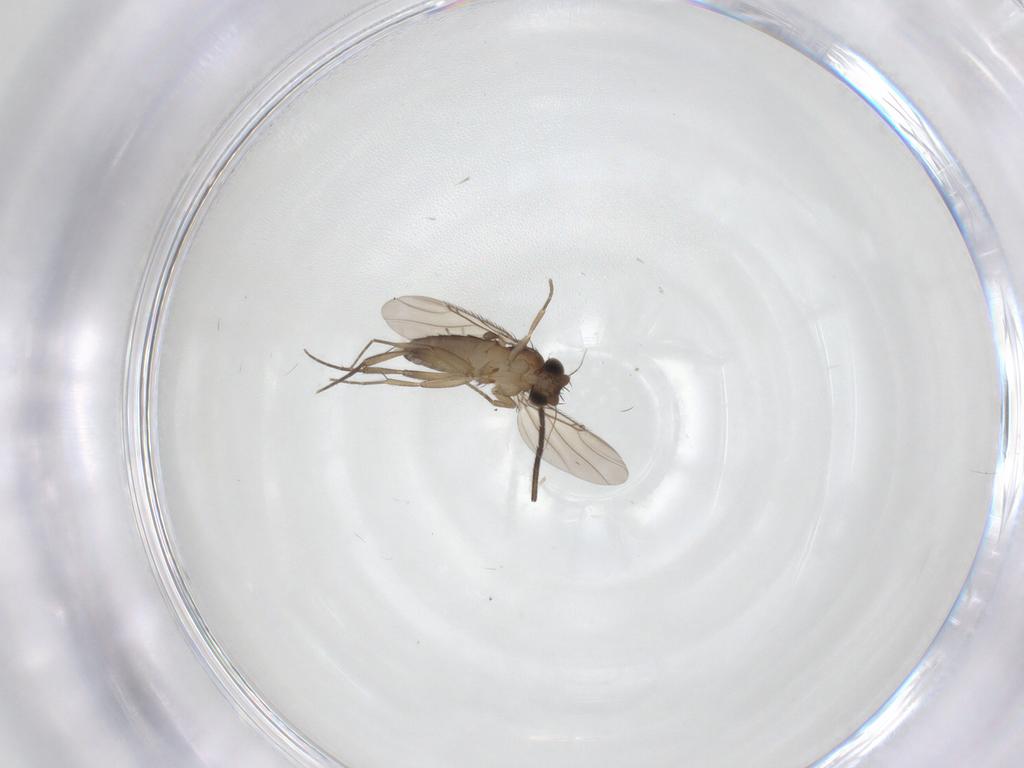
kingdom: Animalia
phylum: Arthropoda
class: Insecta
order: Diptera
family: Phoridae
